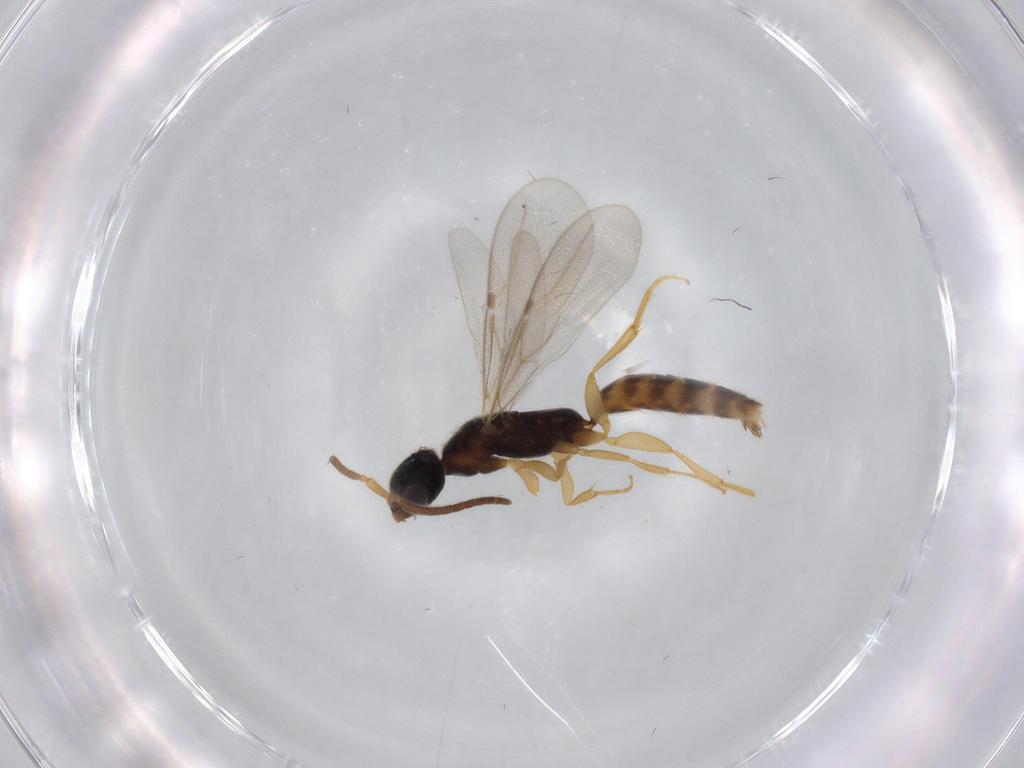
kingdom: Animalia
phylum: Arthropoda
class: Insecta
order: Hymenoptera
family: Bethylidae
